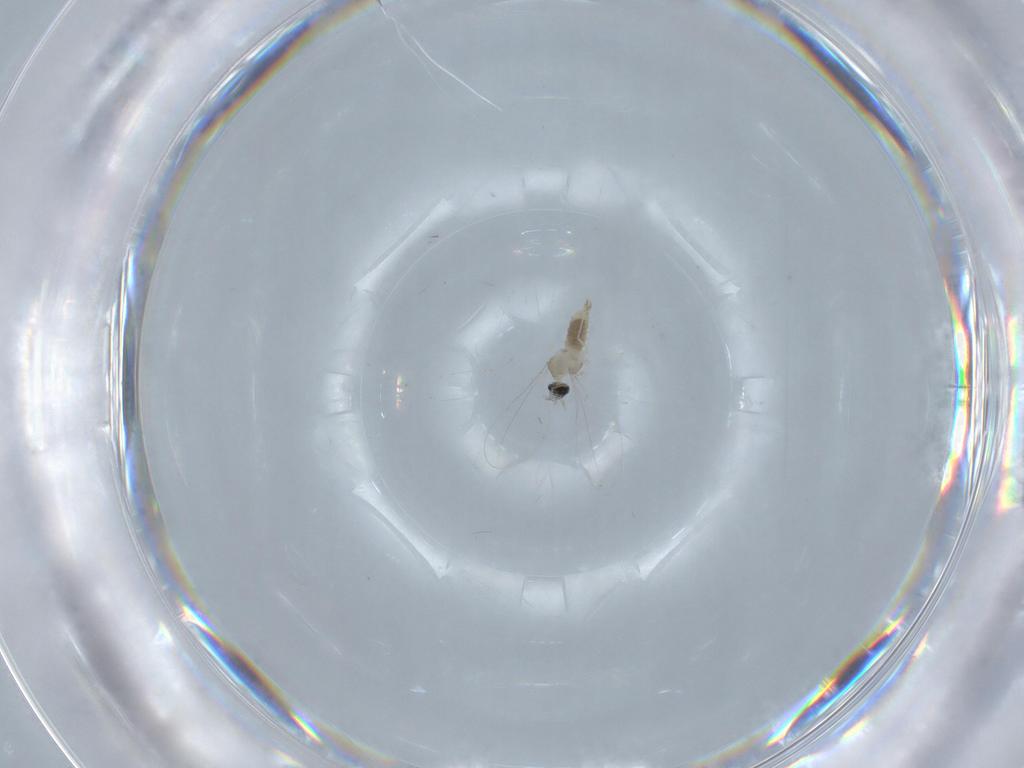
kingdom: Animalia
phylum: Arthropoda
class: Insecta
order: Diptera
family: Cecidomyiidae
